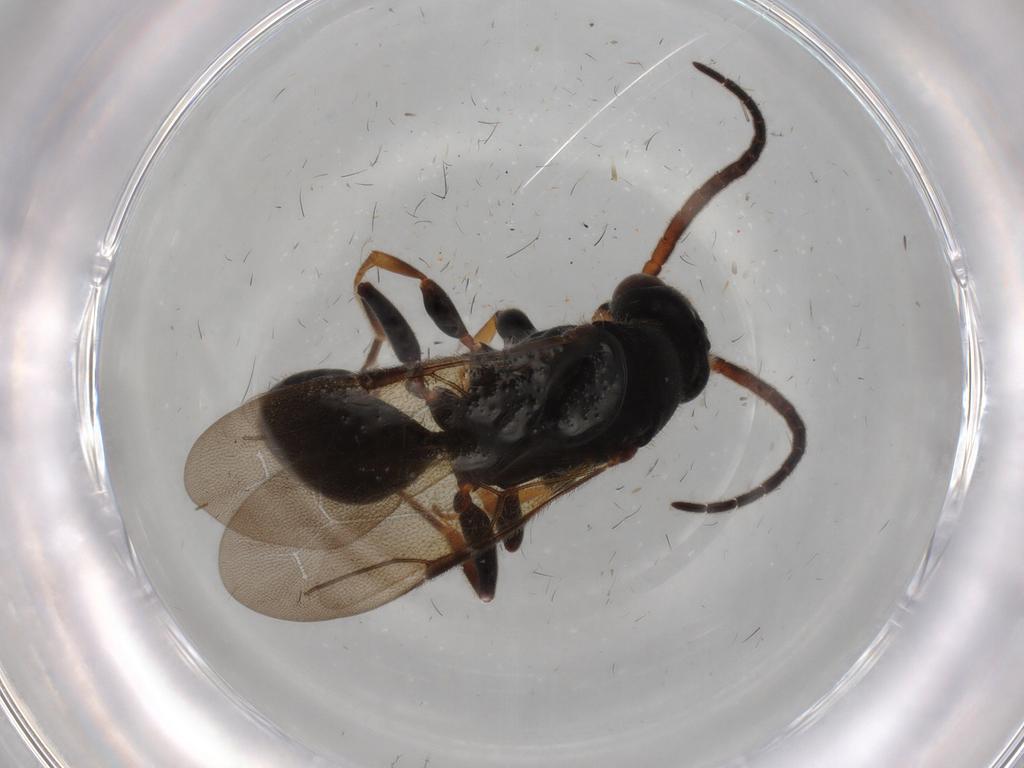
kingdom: Animalia
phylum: Arthropoda
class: Insecta
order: Hymenoptera
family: Bethylidae
